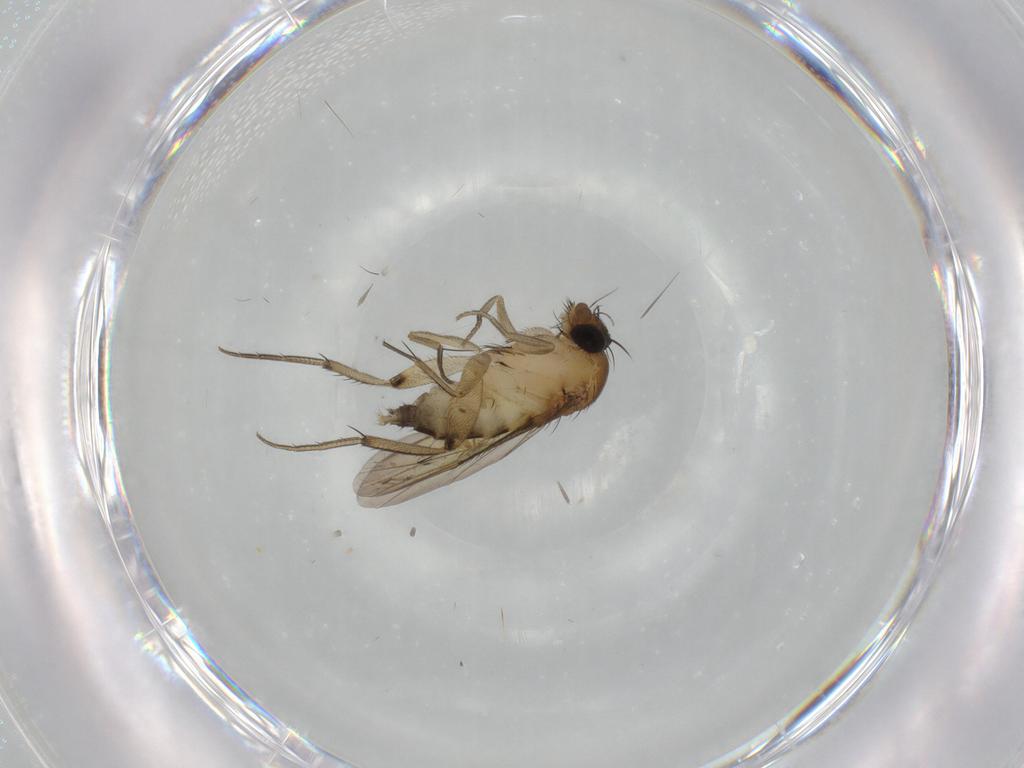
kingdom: Animalia
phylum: Arthropoda
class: Insecta
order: Diptera
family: Phoridae
